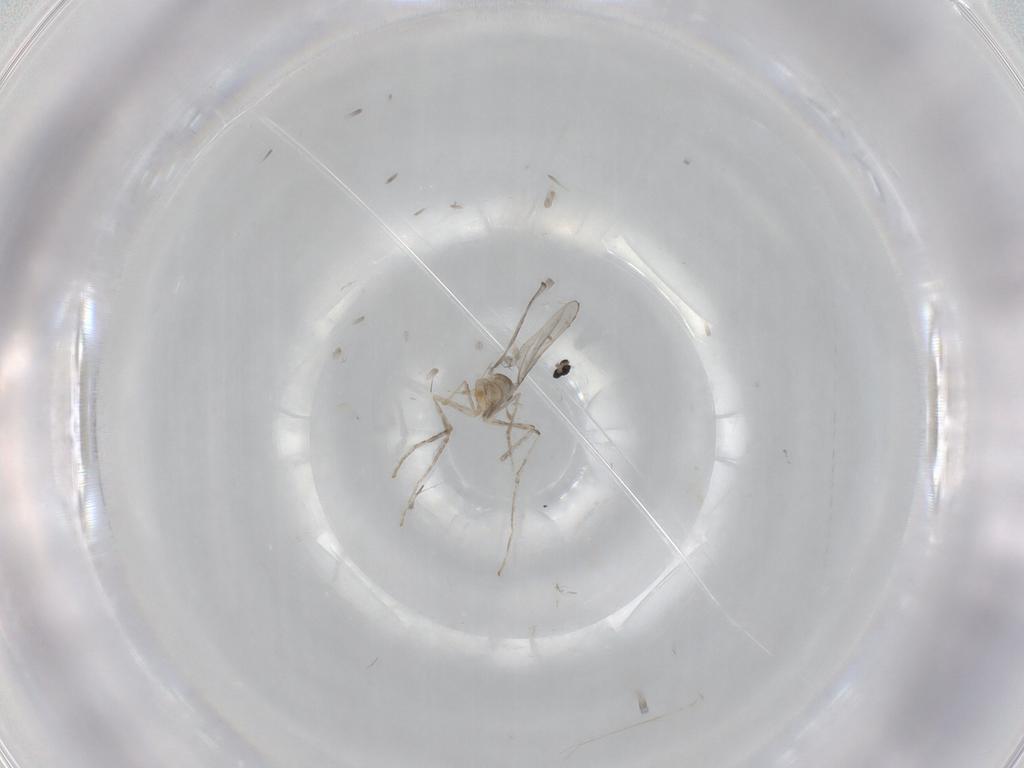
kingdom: Animalia
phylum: Arthropoda
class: Insecta
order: Diptera
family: Cecidomyiidae
